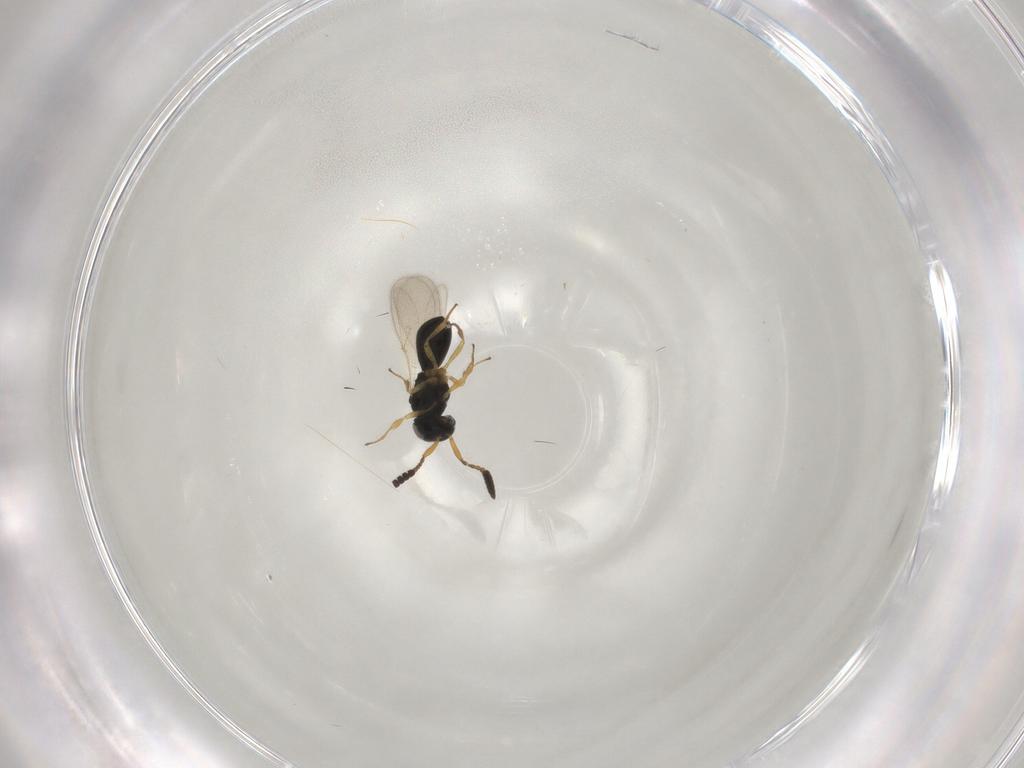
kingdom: Animalia
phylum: Arthropoda
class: Insecta
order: Hymenoptera
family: Scelionidae
